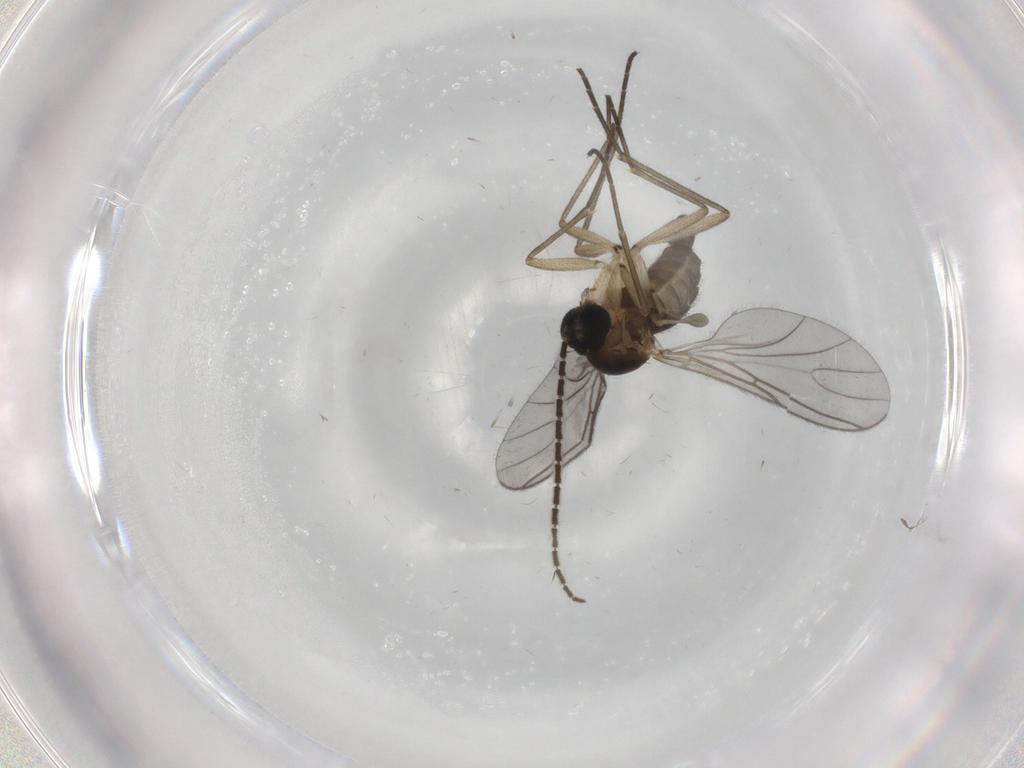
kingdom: Animalia
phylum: Arthropoda
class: Insecta
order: Diptera
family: Sciaridae
